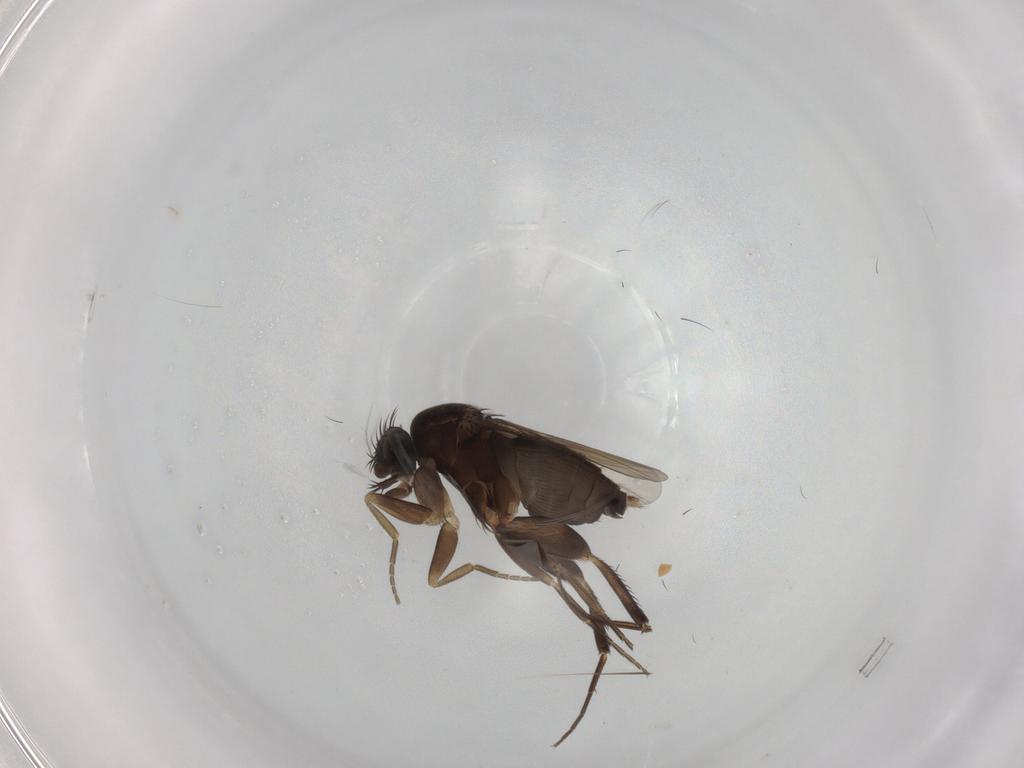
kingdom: Animalia
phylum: Arthropoda
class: Insecta
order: Diptera
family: Phoridae
